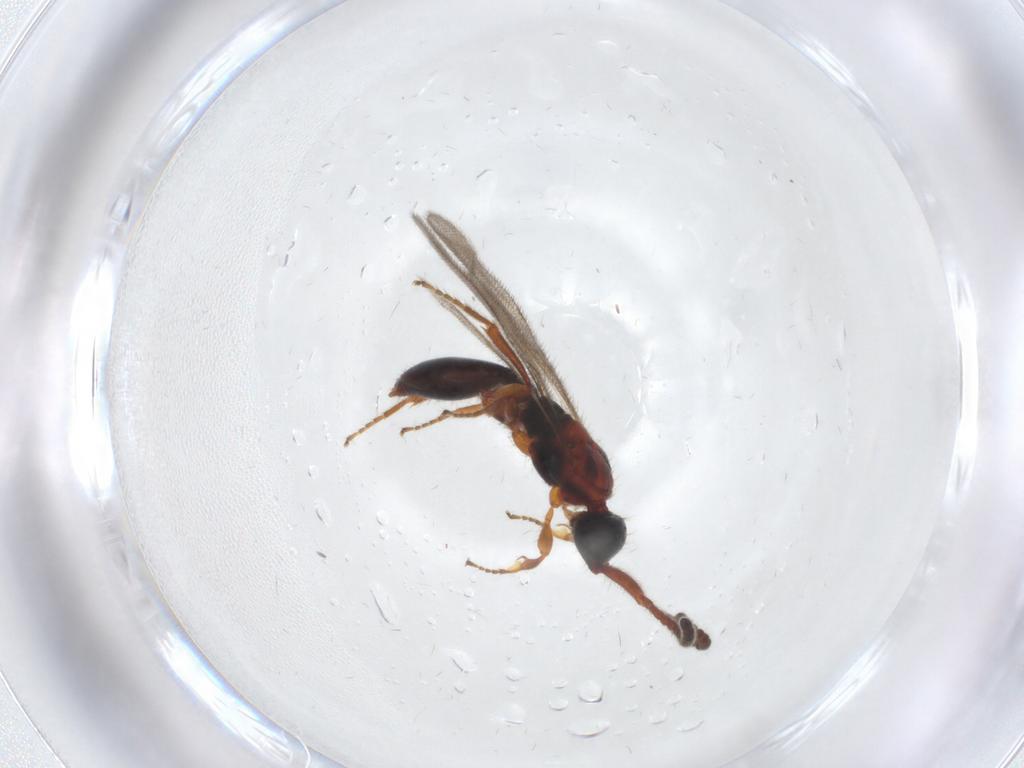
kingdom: Animalia
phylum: Arthropoda
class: Insecta
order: Hymenoptera
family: Diapriidae
